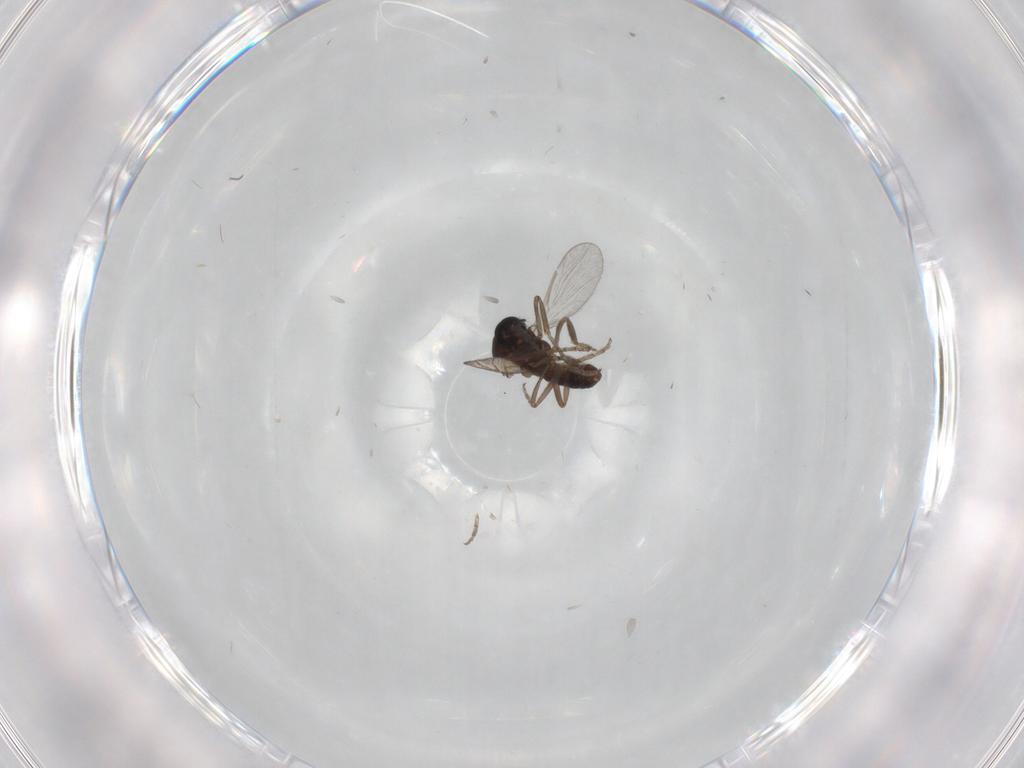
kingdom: Animalia
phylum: Arthropoda
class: Insecta
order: Diptera
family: Ceratopogonidae
